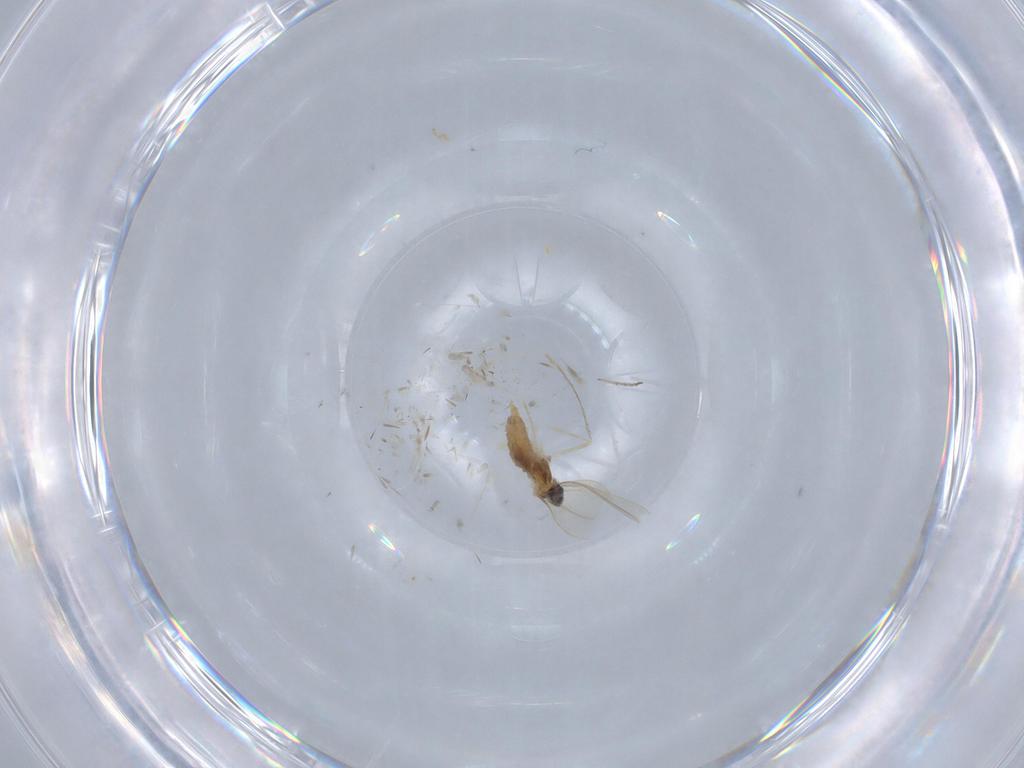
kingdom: Animalia
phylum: Arthropoda
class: Insecta
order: Diptera
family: Cecidomyiidae
